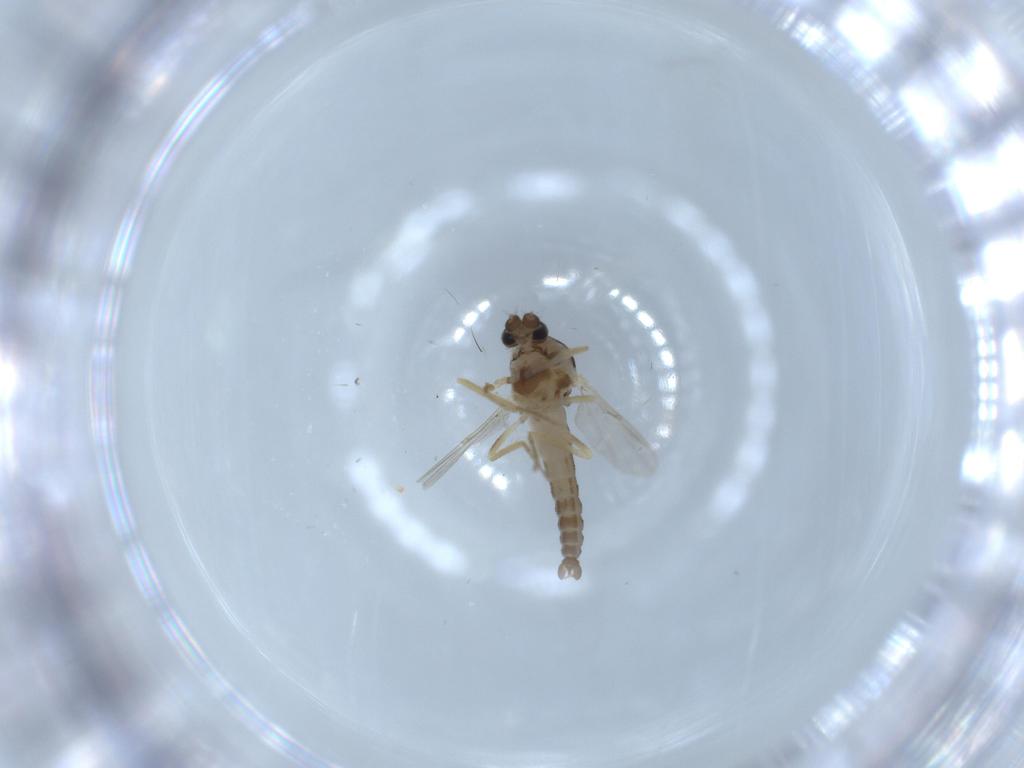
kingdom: Animalia
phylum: Arthropoda
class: Insecta
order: Diptera
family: Ceratopogonidae
